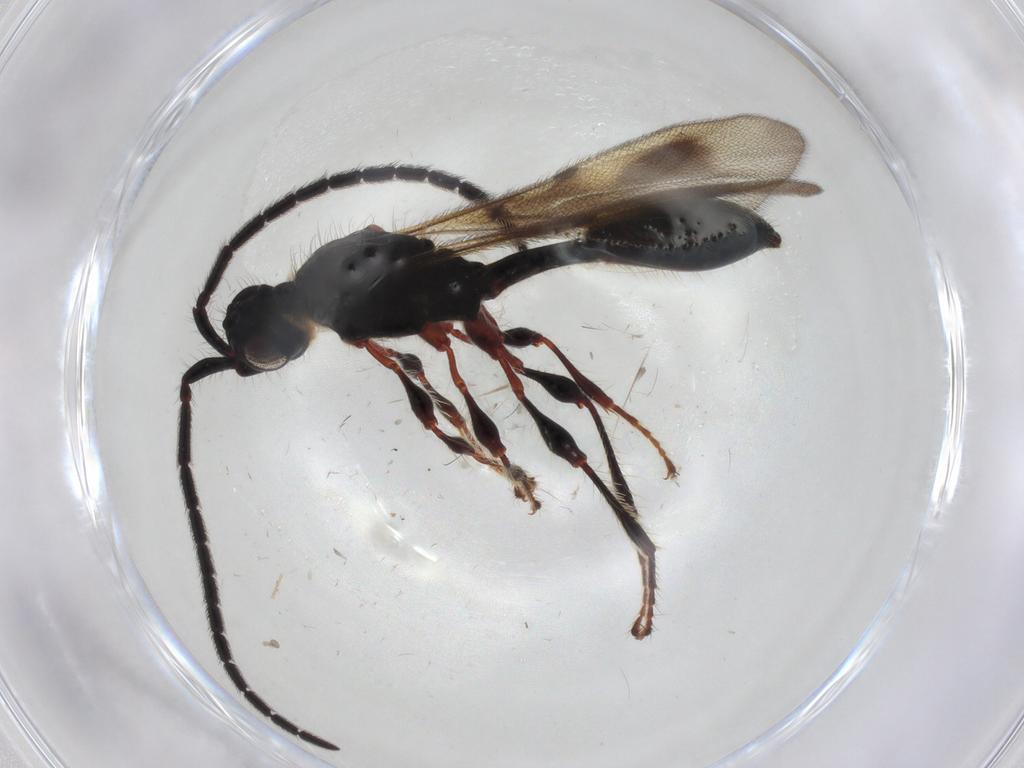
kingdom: Animalia
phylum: Arthropoda
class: Insecta
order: Hymenoptera
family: Diapriidae
